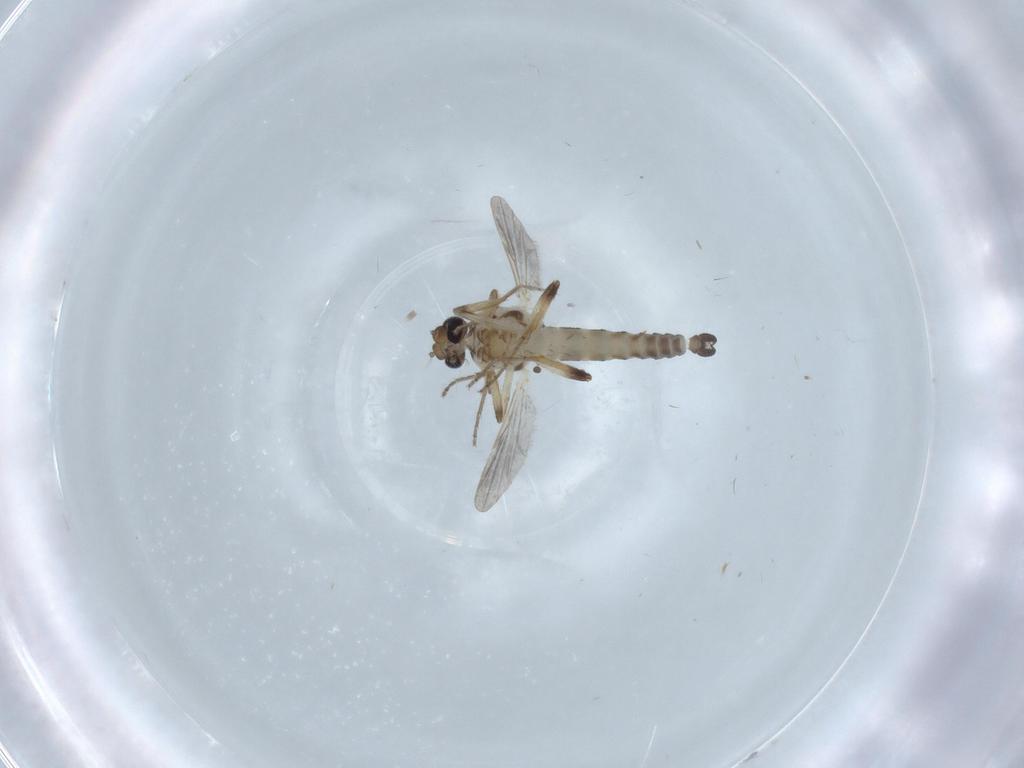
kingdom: Animalia
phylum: Arthropoda
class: Insecta
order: Diptera
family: Ceratopogonidae
